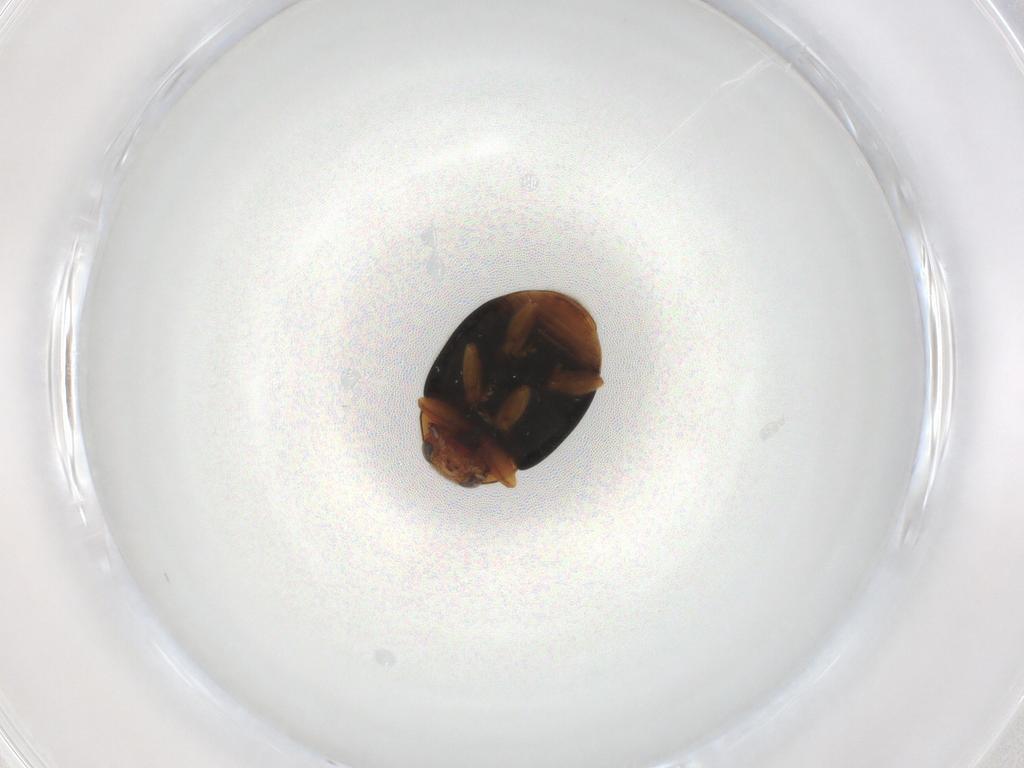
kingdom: Animalia
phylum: Arthropoda
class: Insecta
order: Coleoptera
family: Coccinellidae
